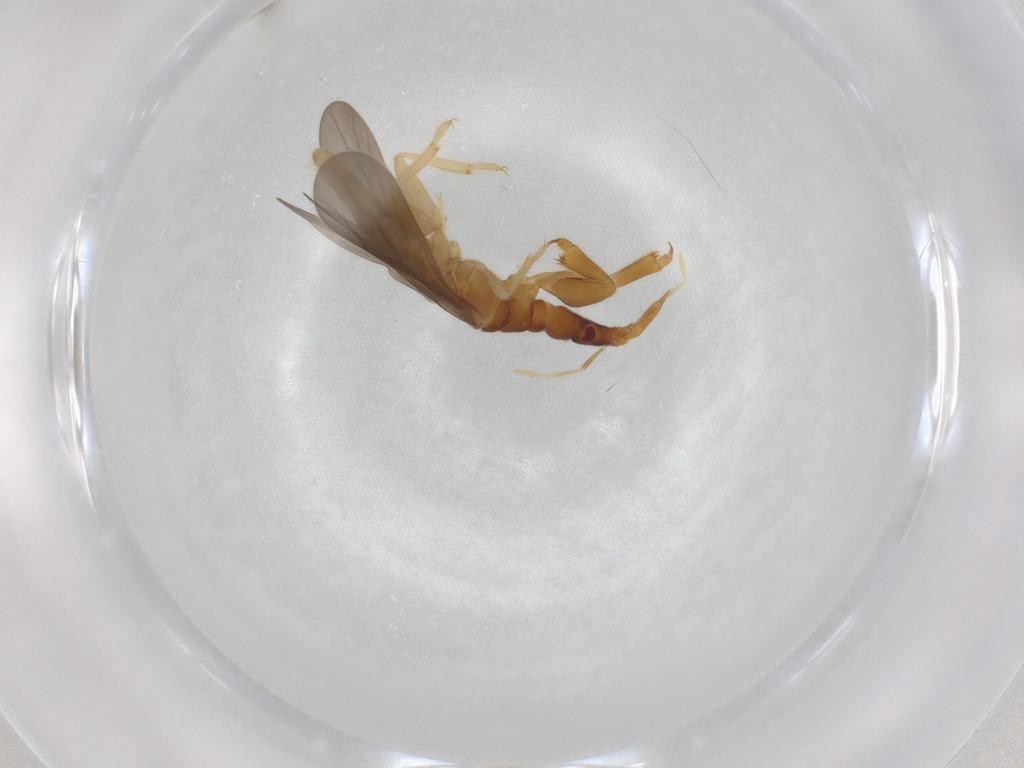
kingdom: Animalia
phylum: Arthropoda
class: Insecta
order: Hemiptera
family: Enicocephalidae
